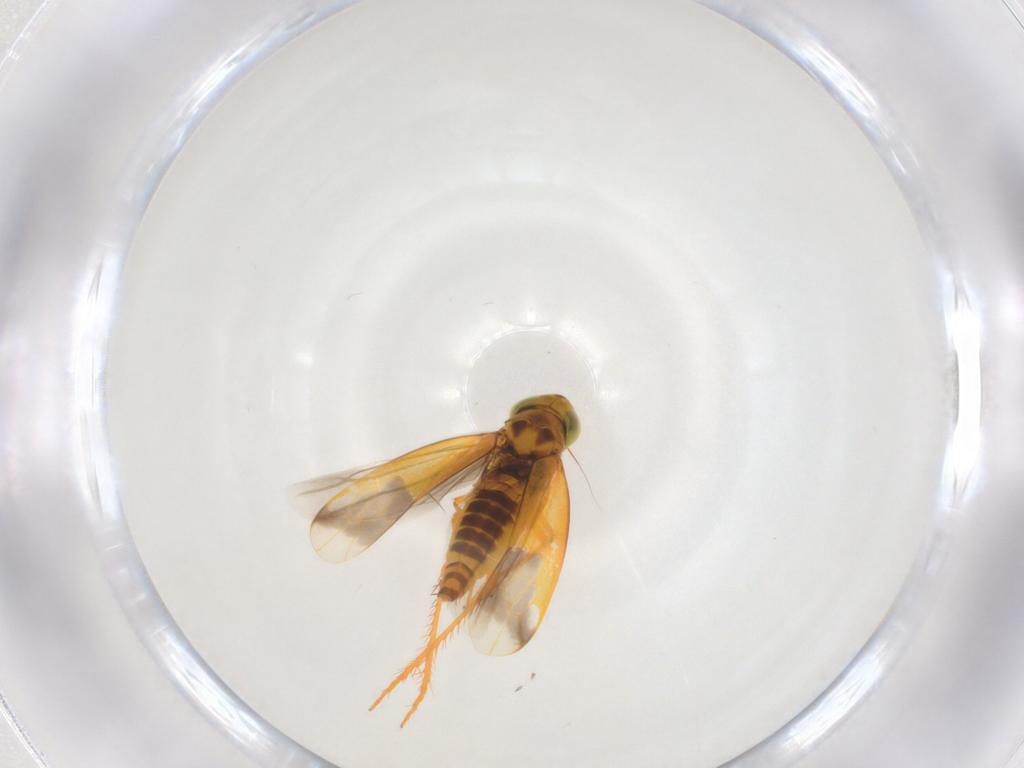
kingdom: Animalia
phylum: Arthropoda
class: Insecta
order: Hemiptera
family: Cicadellidae
